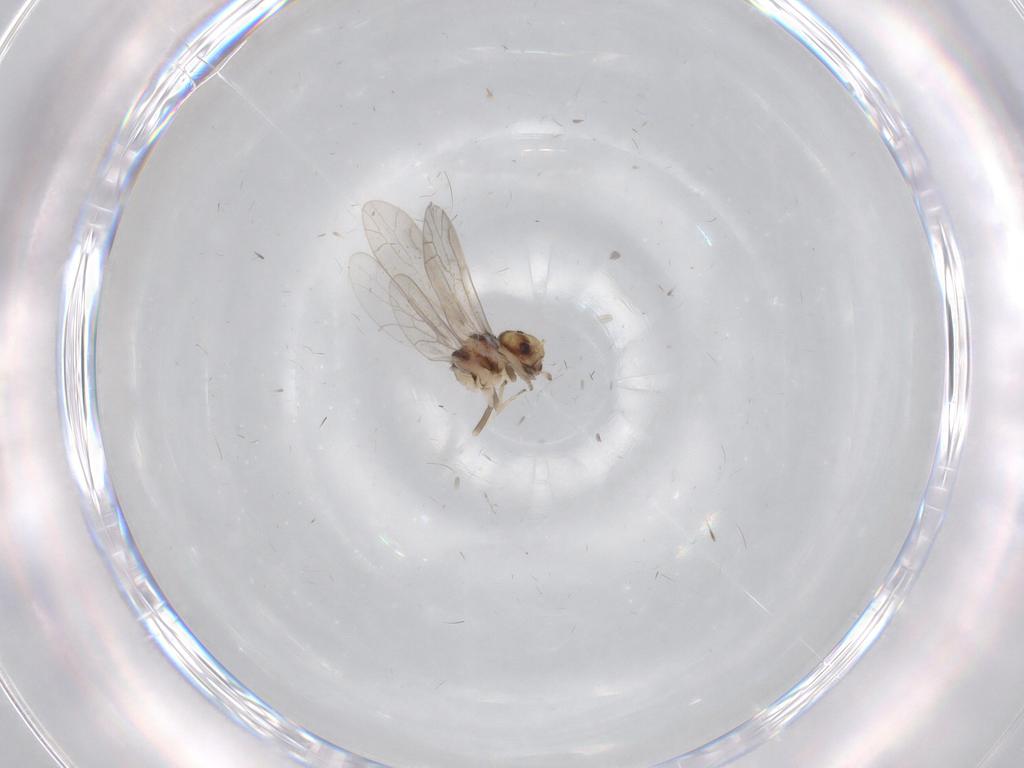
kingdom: Animalia
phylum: Arthropoda
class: Insecta
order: Psocodea
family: Ectopsocidae
